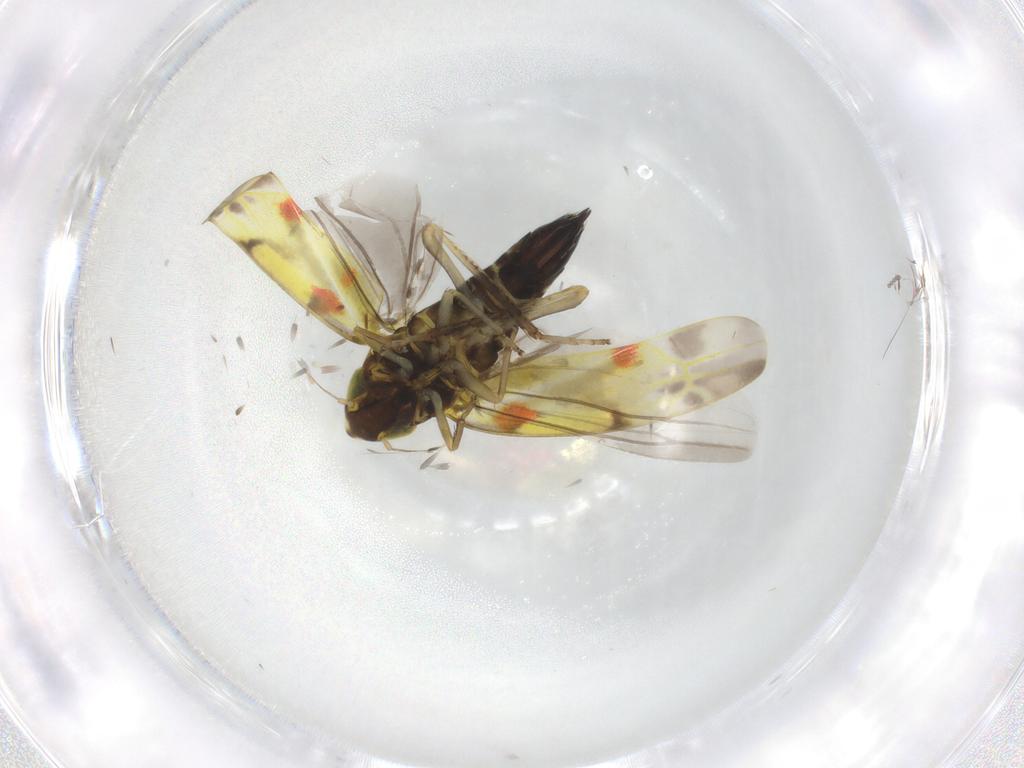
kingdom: Animalia
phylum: Arthropoda
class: Insecta
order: Hemiptera
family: Cicadellidae
